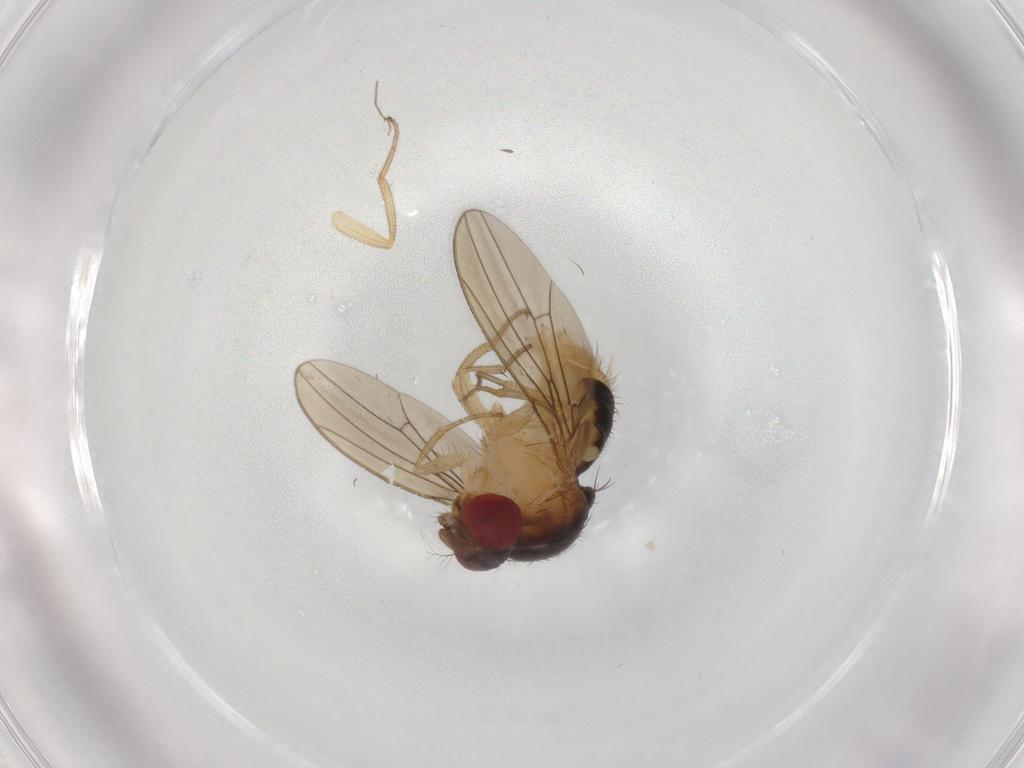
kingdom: Animalia
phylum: Arthropoda
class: Insecta
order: Diptera
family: Drosophilidae
